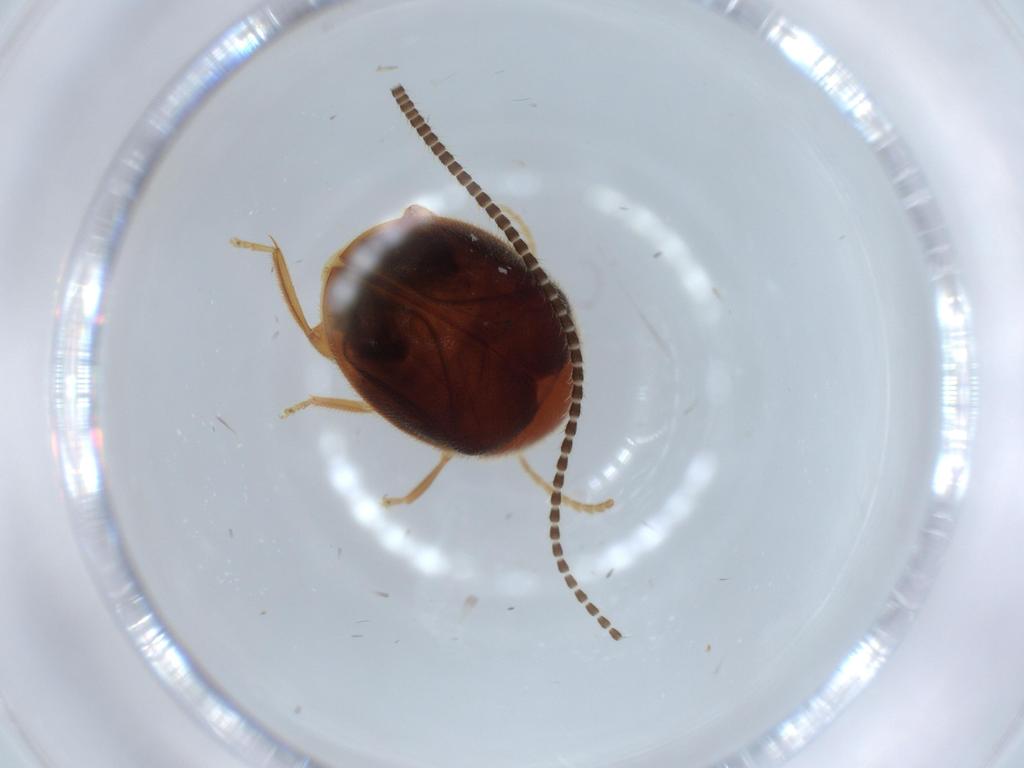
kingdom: Animalia
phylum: Arthropoda
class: Insecta
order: Coleoptera
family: Scirtidae
